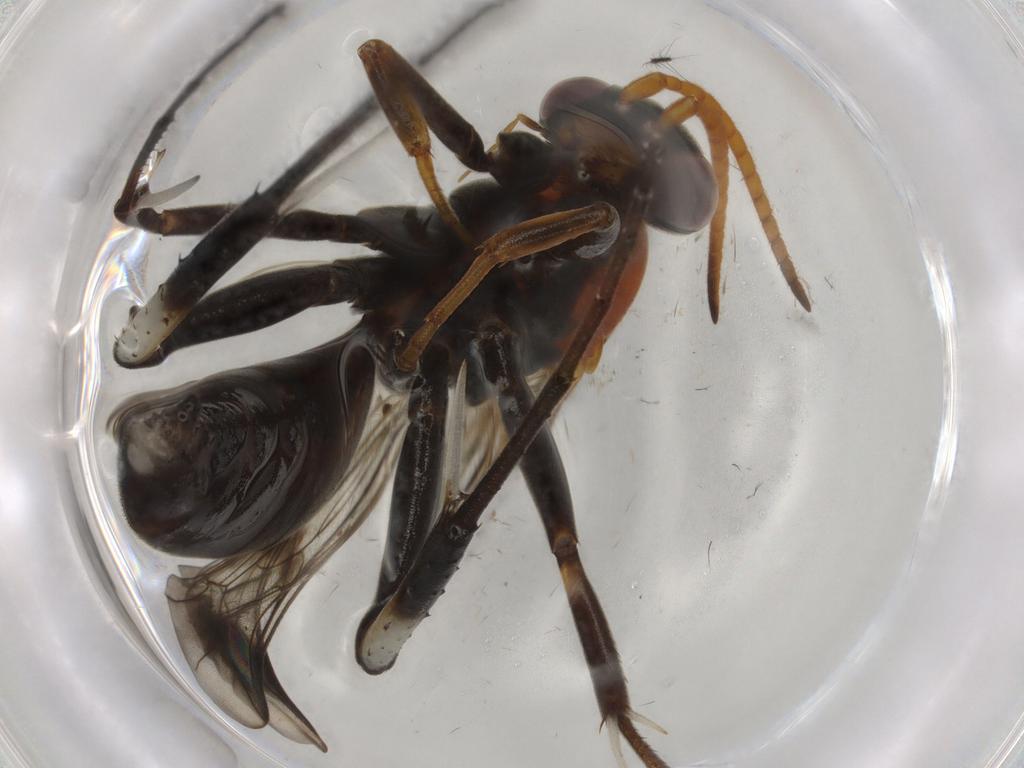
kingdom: Animalia
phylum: Arthropoda
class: Insecta
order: Hymenoptera
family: Pompilidae
